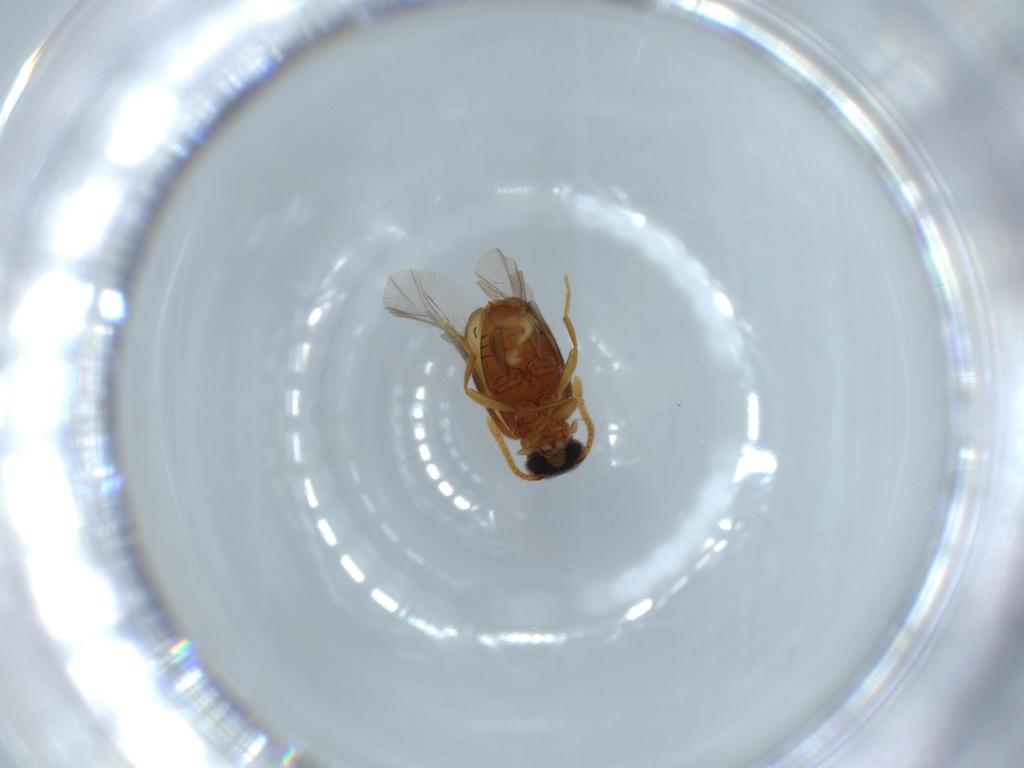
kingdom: Animalia
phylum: Arthropoda
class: Insecta
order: Coleoptera
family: Aderidae
